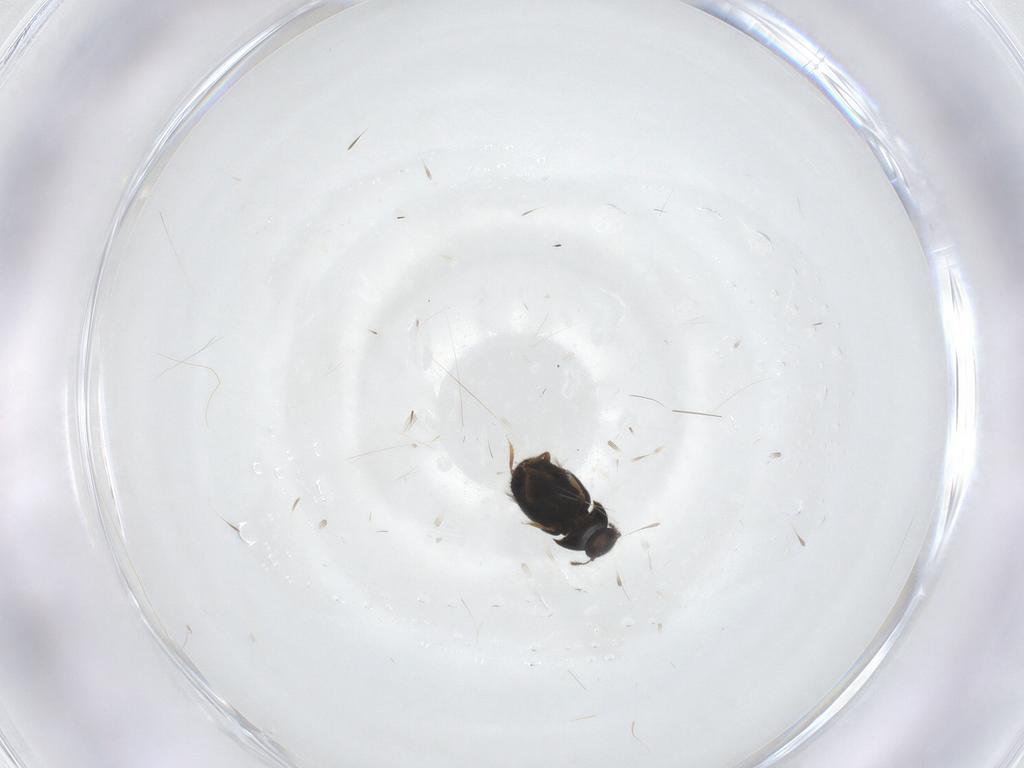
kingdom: Animalia
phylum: Arthropoda
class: Insecta
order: Coleoptera
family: Ptiliidae
